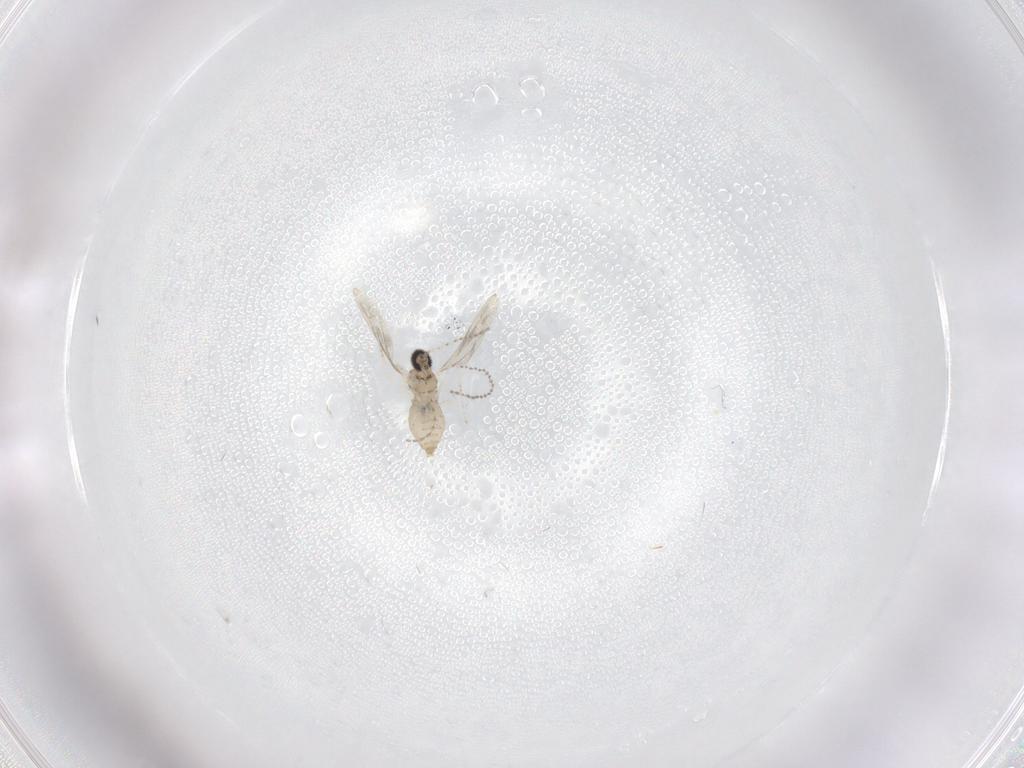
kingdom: Animalia
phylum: Arthropoda
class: Insecta
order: Diptera
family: Cecidomyiidae
